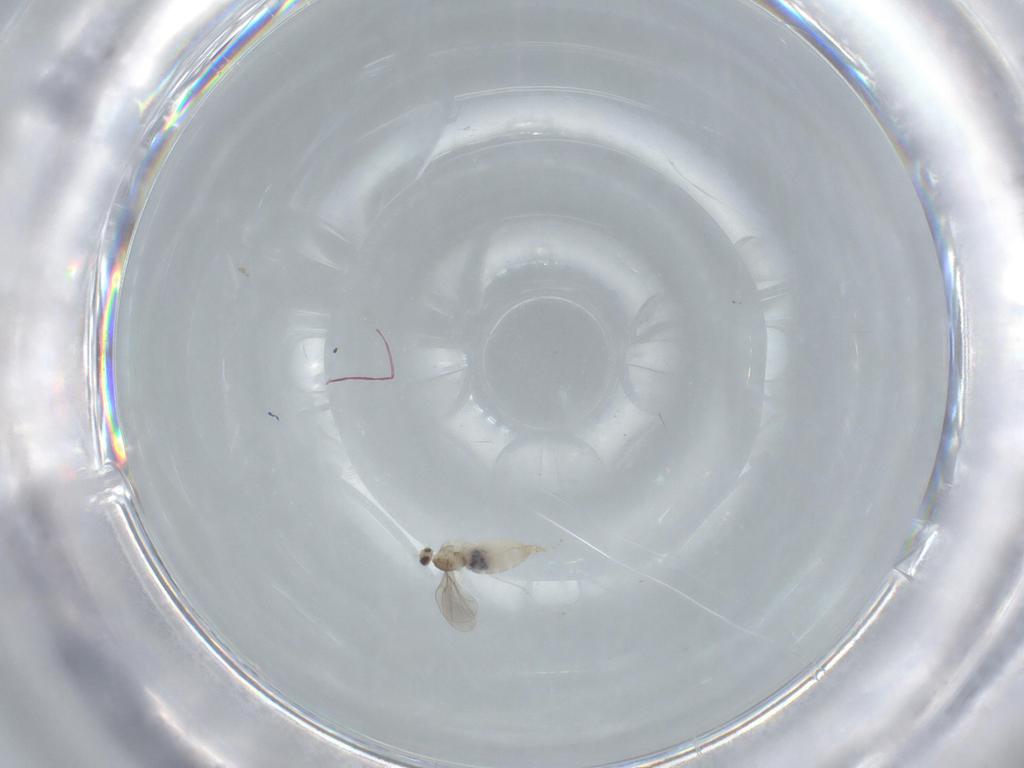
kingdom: Animalia
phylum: Arthropoda
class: Insecta
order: Diptera
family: Cecidomyiidae
